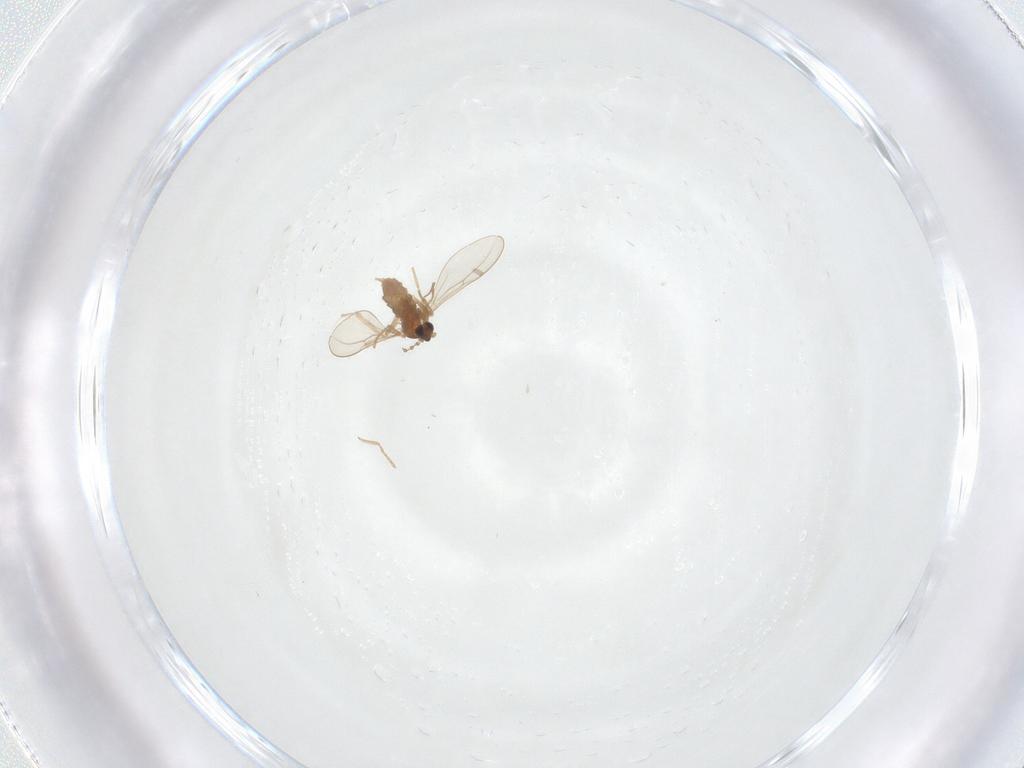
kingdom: Animalia
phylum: Arthropoda
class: Insecta
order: Diptera
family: Cecidomyiidae
